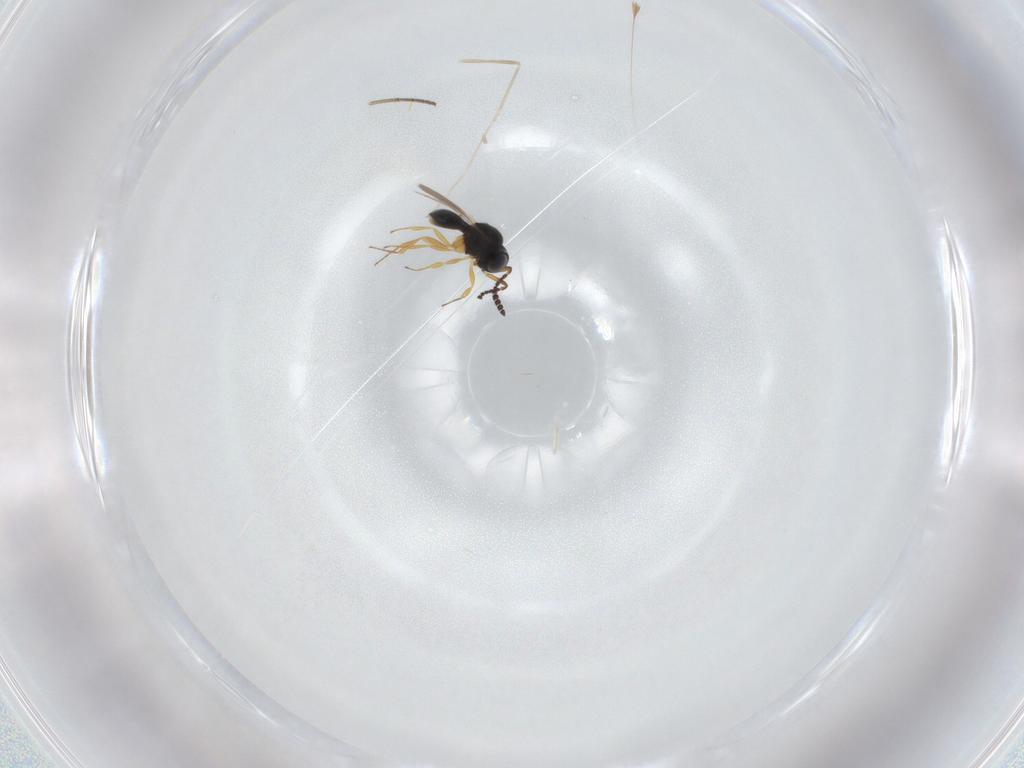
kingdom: Animalia
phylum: Arthropoda
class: Insecta
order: Hymenoptera
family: Scelionidae
